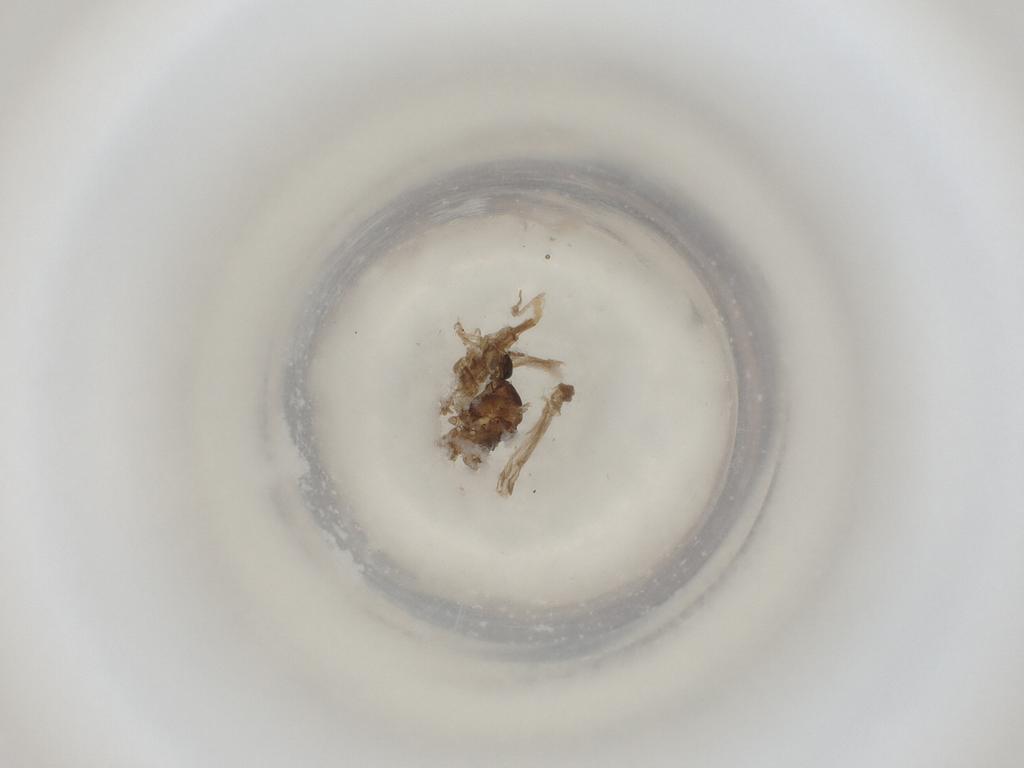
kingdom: Animalia
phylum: Arthropoda
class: Insecta
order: Diptera
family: Cecidomyiidae
